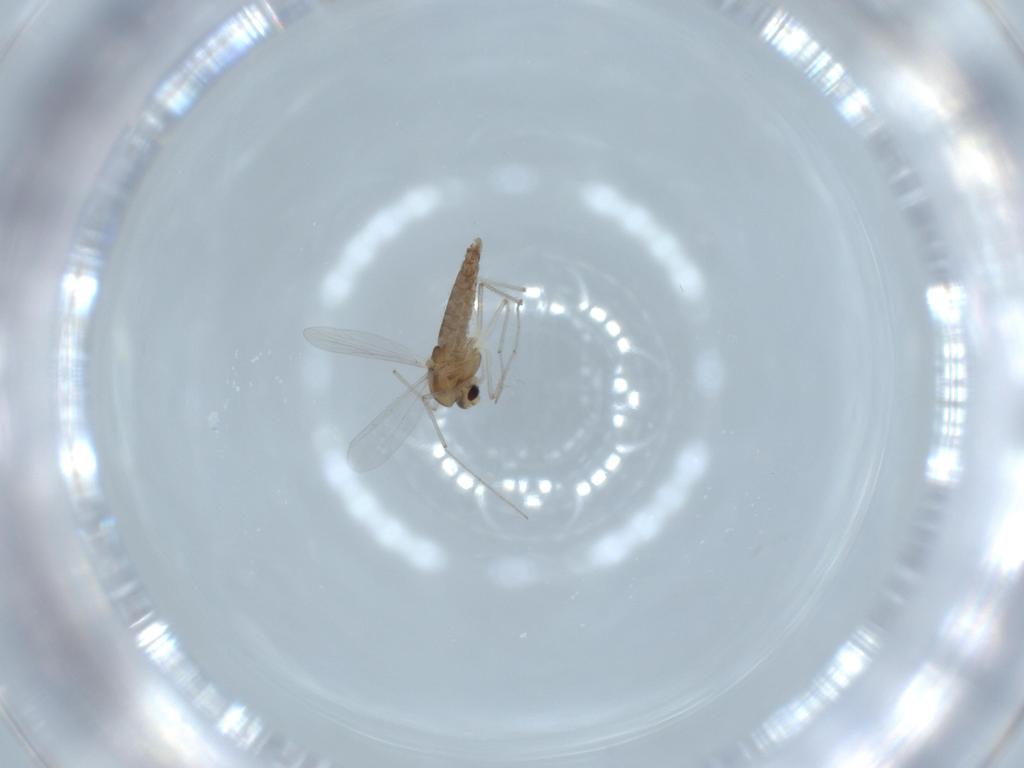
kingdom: Animalia
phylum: Arthropoda
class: Insecta
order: Diptera
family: Chironomidae
